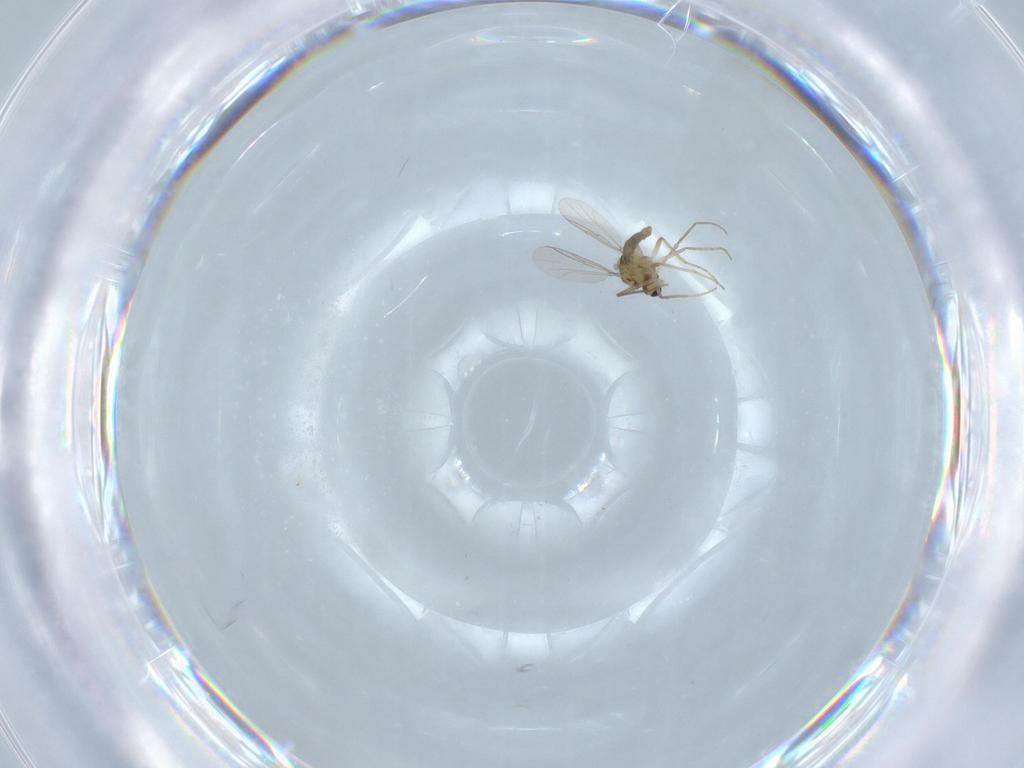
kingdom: Animalia
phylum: Arthropoda
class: Insecta
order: Diptera
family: Chironomidae
